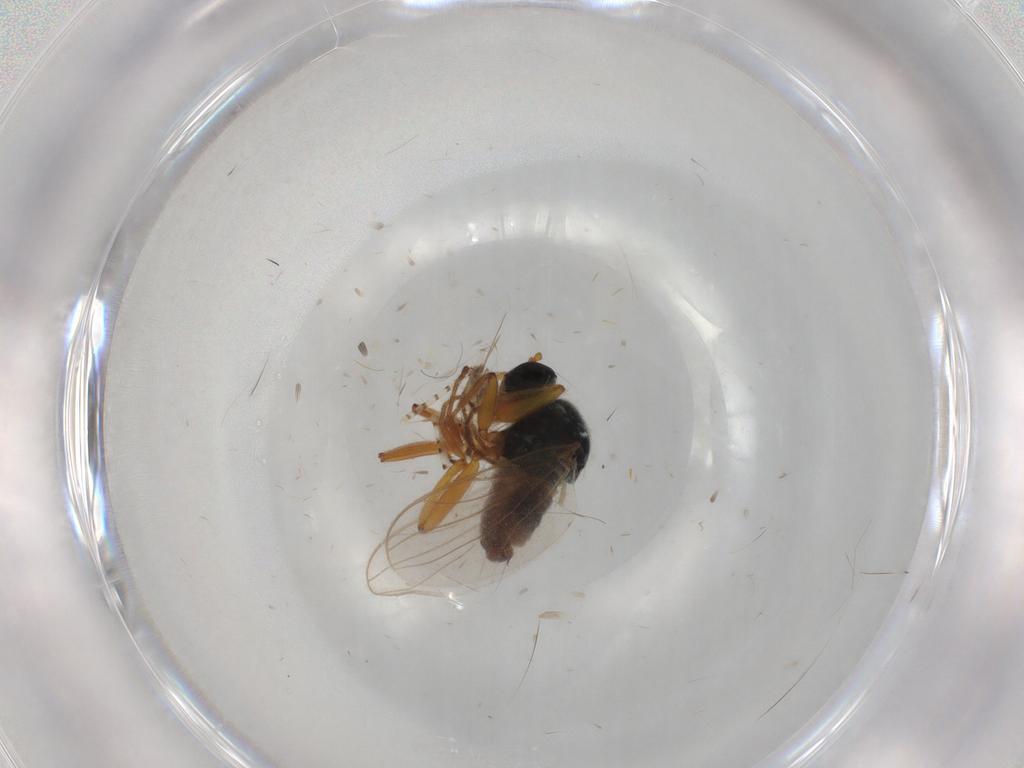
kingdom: Animalia
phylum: Arthropoda
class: Insecta
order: Diptera
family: Hybotidae
